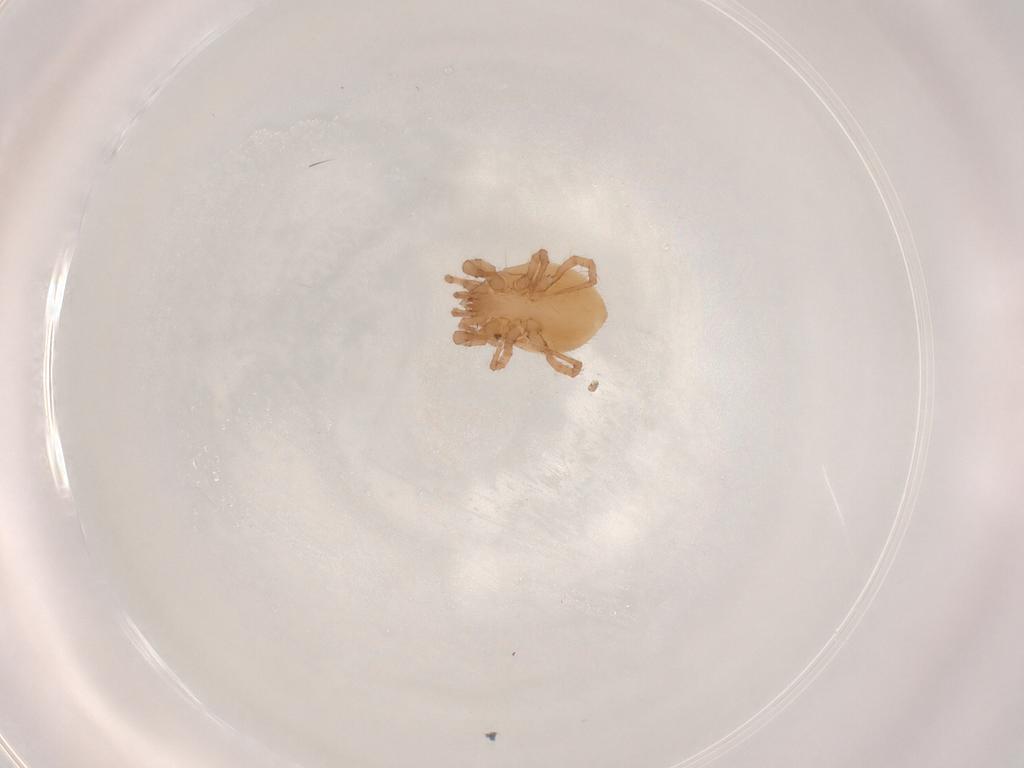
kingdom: Animalia
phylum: Arthropoda
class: Arachnida
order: Mesostigmata
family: Parasitidae
